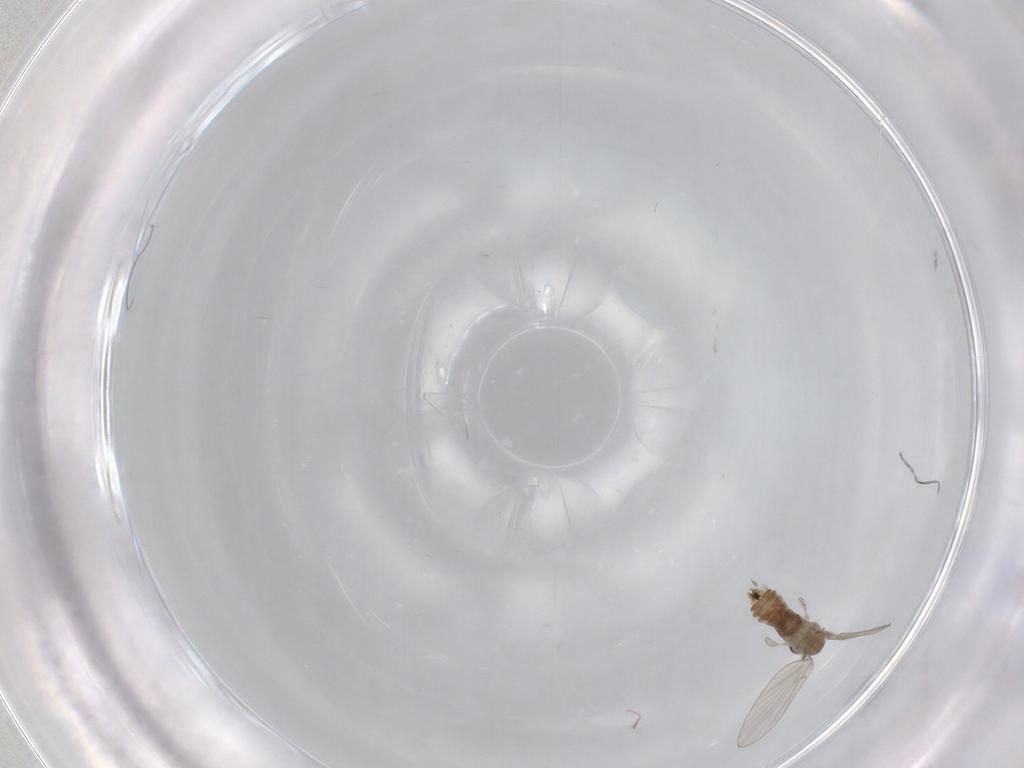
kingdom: Animalia
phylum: Arthropoda
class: Insecta
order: Diptera
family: Psychodidae
